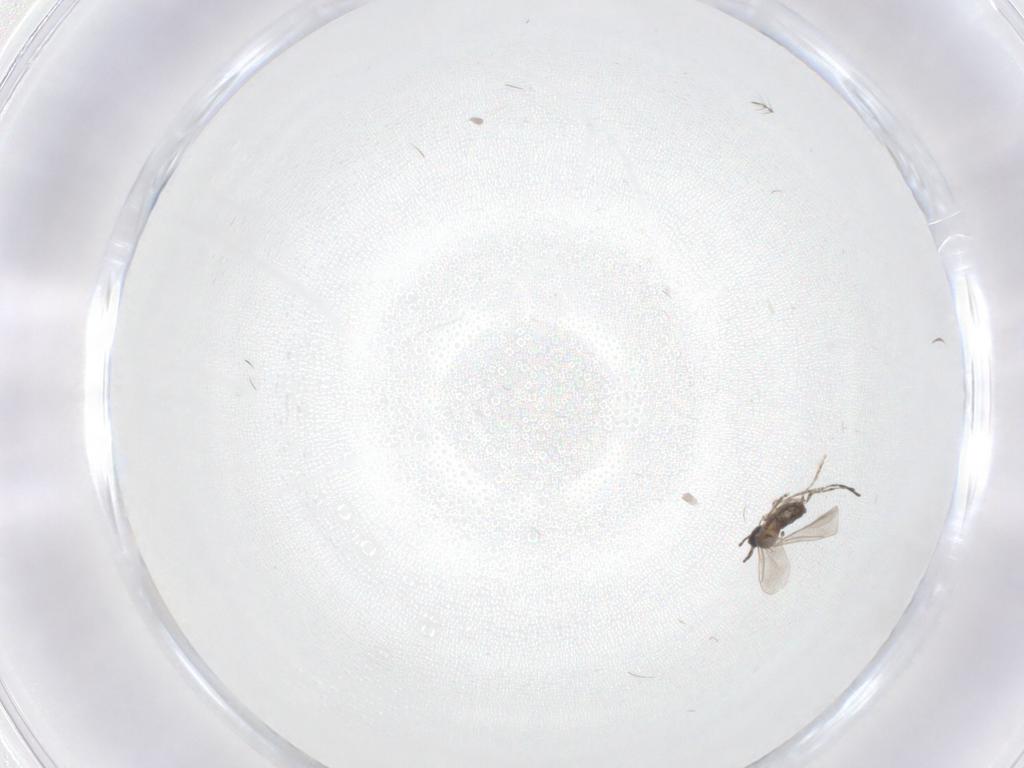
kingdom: Animalia
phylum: Arthropoda
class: Insecta
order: Diptera
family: Cecidomyiidae
